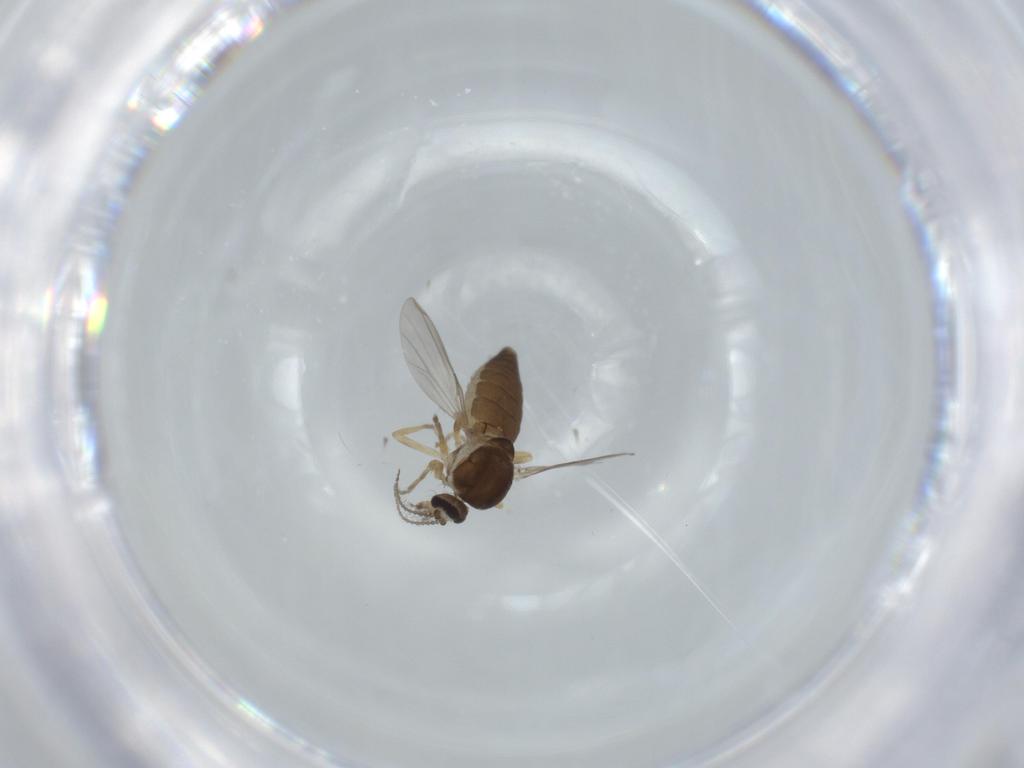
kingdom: Animalia
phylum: Arthropoda
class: Insecta
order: Diptera
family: Ceratopogonidae
